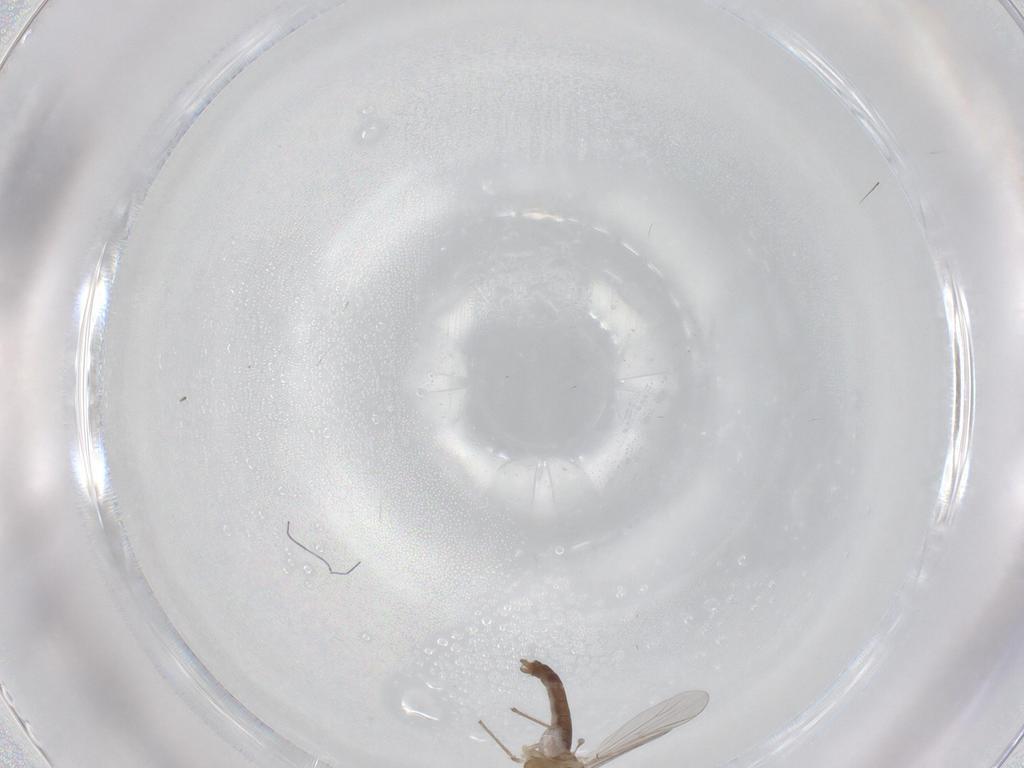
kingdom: Animalia
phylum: Arthropoda
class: Insecta
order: Diptera
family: Chironomidae
